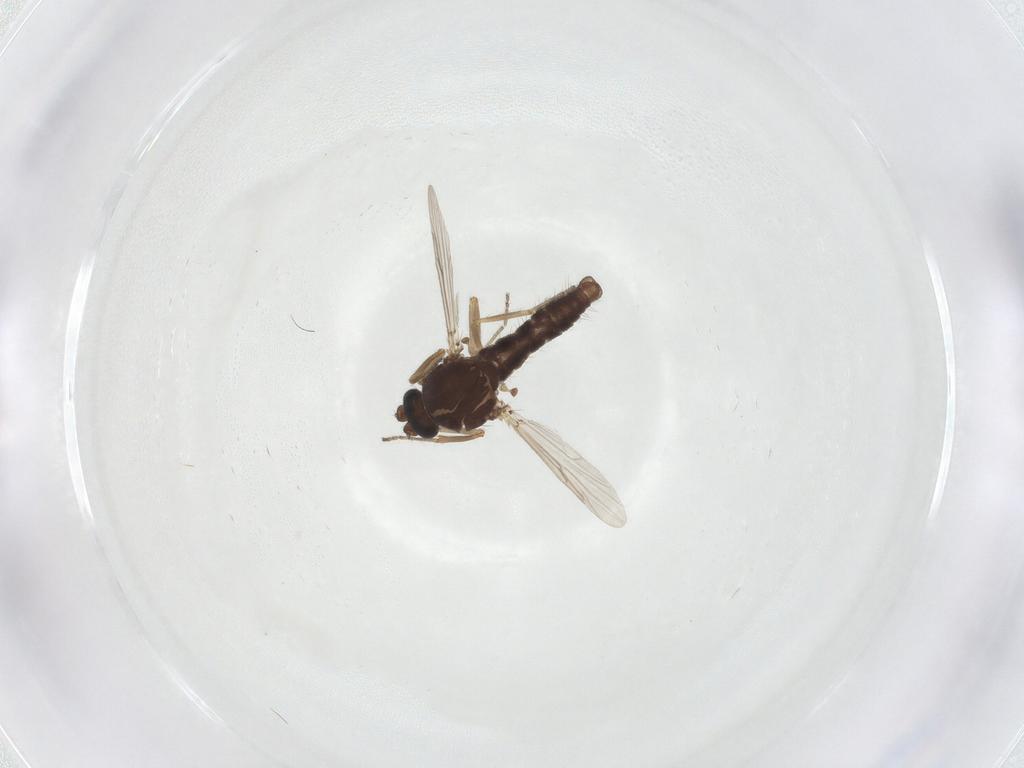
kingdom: Animalia
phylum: Arthropoda
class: Insecta
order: Diptera
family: Ceratopogonidae
